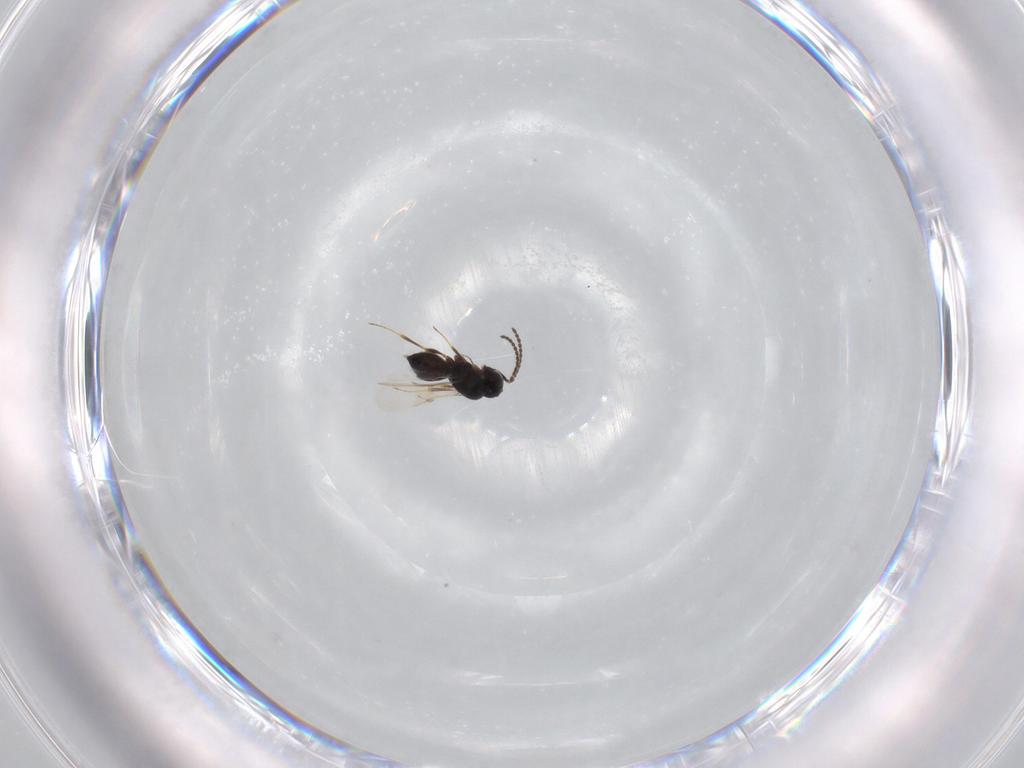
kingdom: Animalia
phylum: Arthropoda
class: Insecta
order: Hymenoptera
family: Scelionidae
